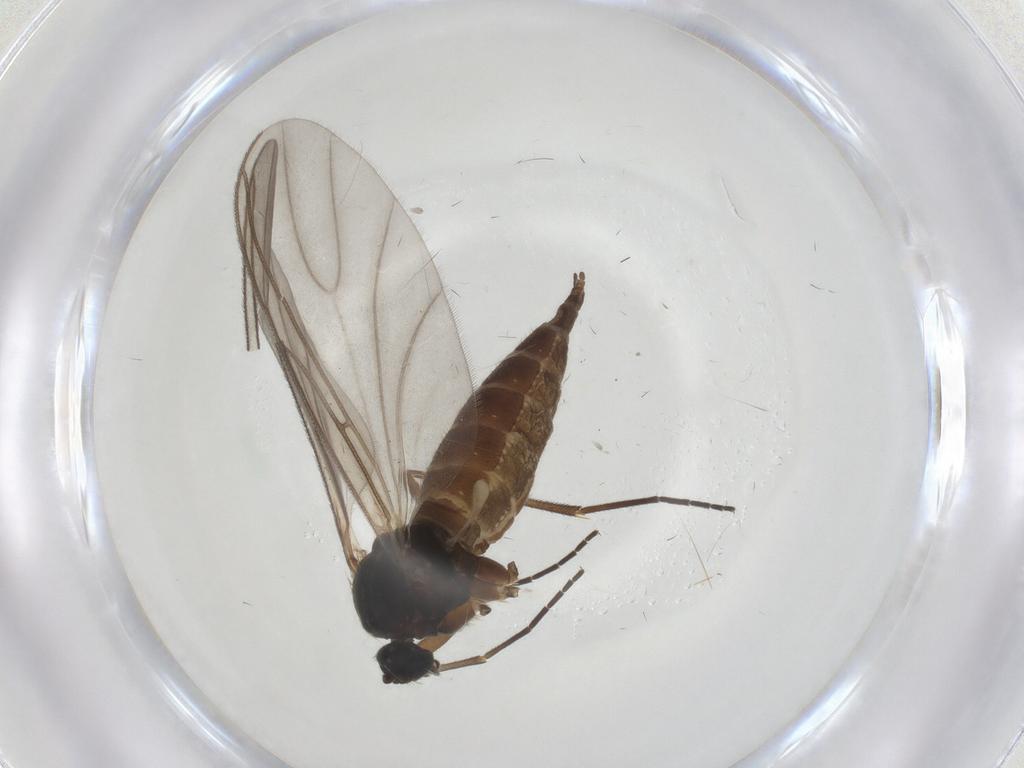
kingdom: Animalia
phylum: Arthropoda
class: Insecta
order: Diptera
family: Sciaridae
